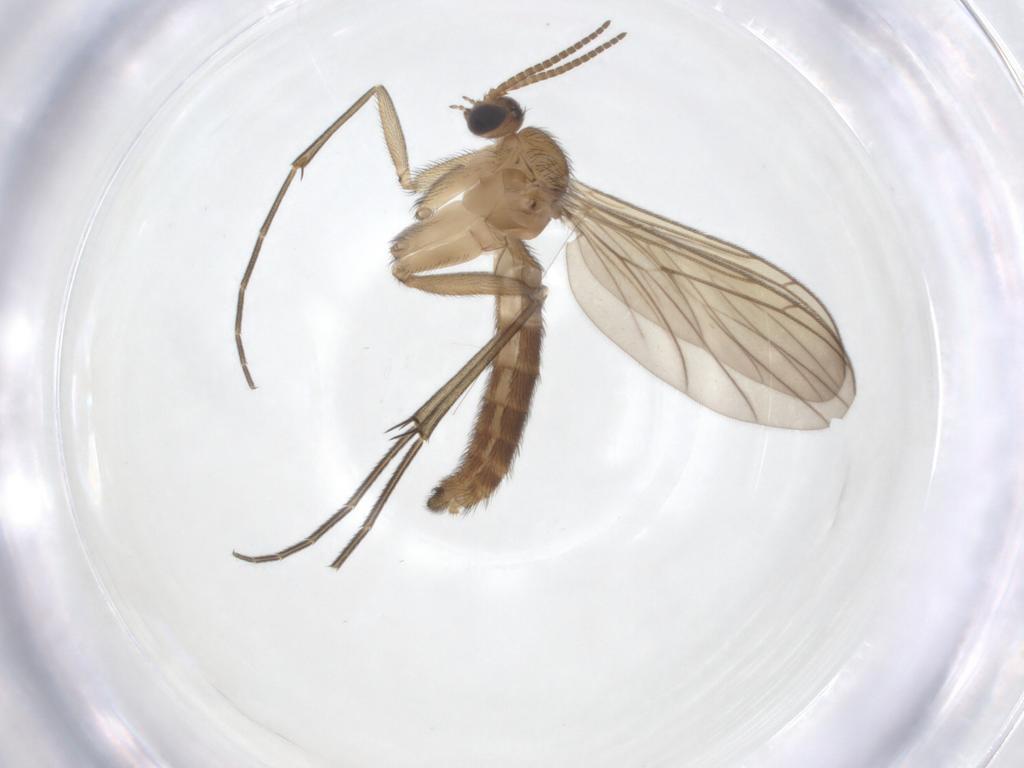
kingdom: Animalia
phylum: Arthropoda
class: Insecta
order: Diptera
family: Keroplatidae
